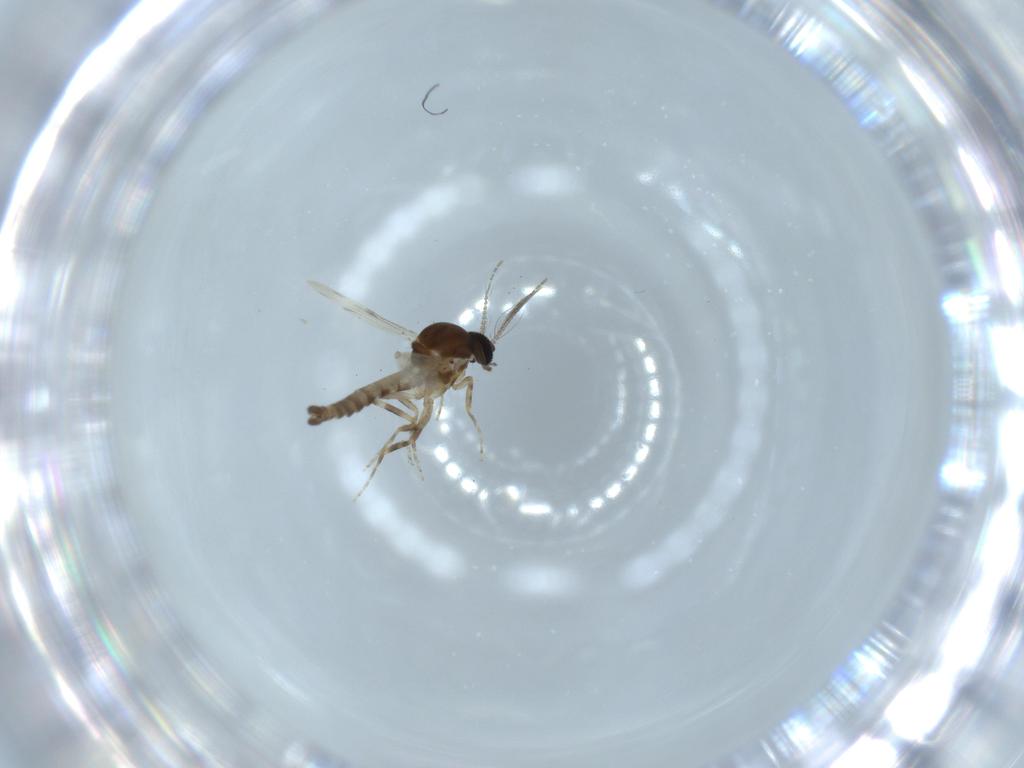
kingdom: Animalia
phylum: Arthropoda
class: Insecta
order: Diptera
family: Ceratopogonidae
